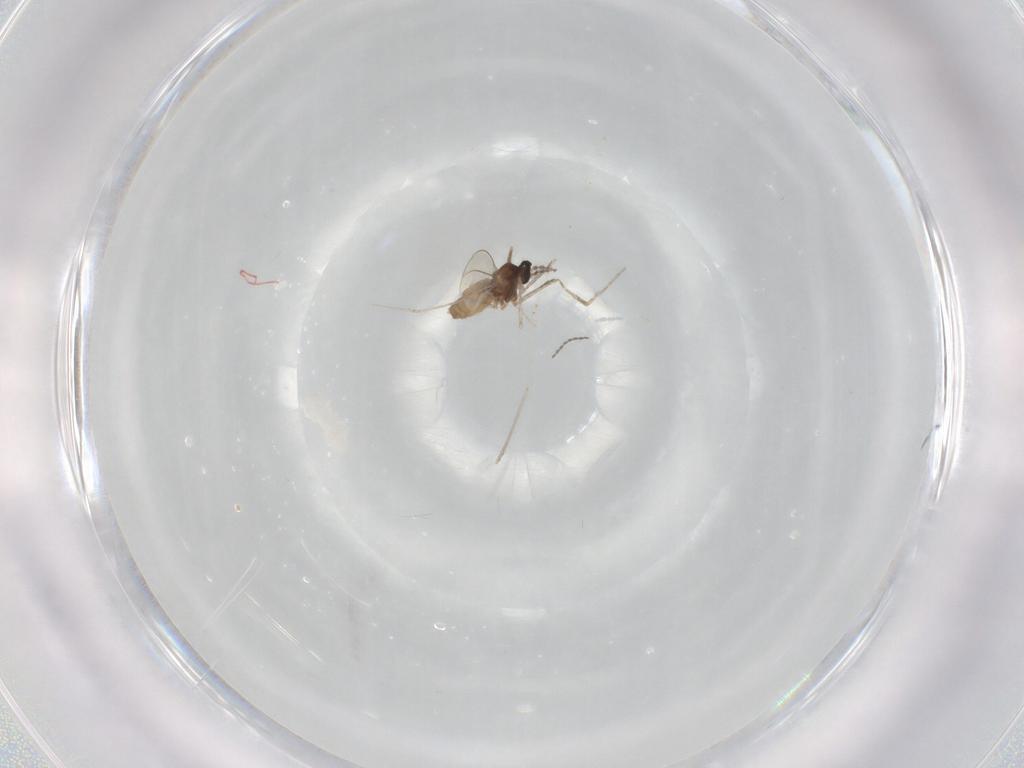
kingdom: Animalia
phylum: Arthropoda
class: Insecta
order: Diptera
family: Cecidomyiidae
